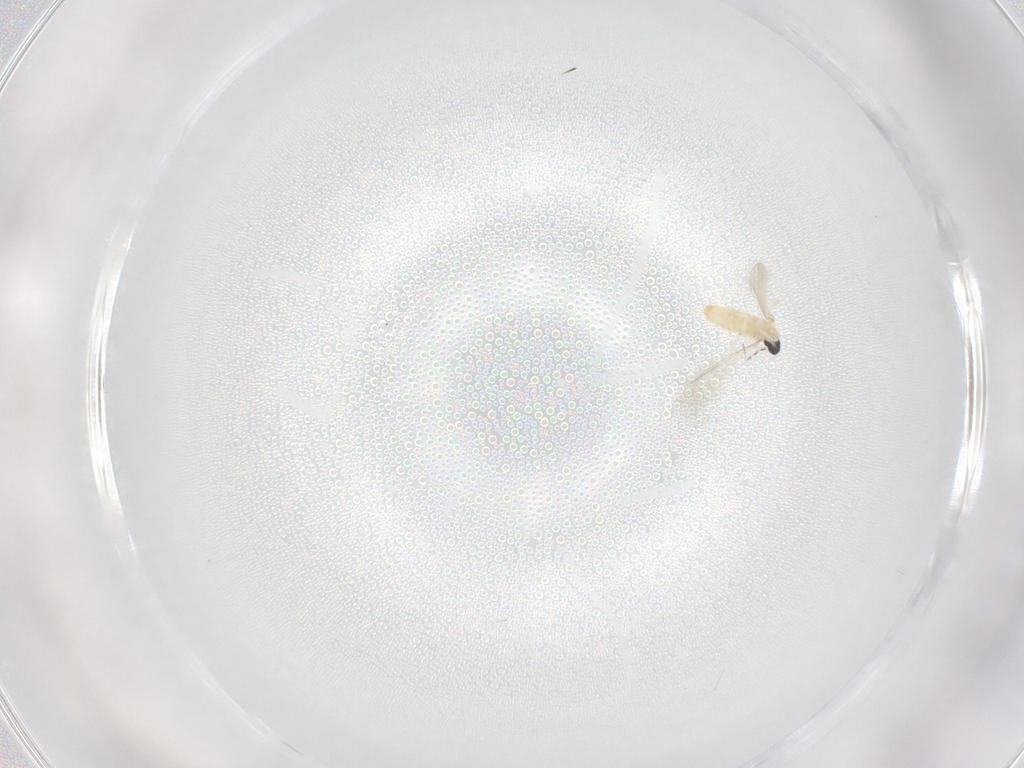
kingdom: Animalia
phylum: Arthropoda
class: Insecta
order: Diptera
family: Cecidomyiidae
